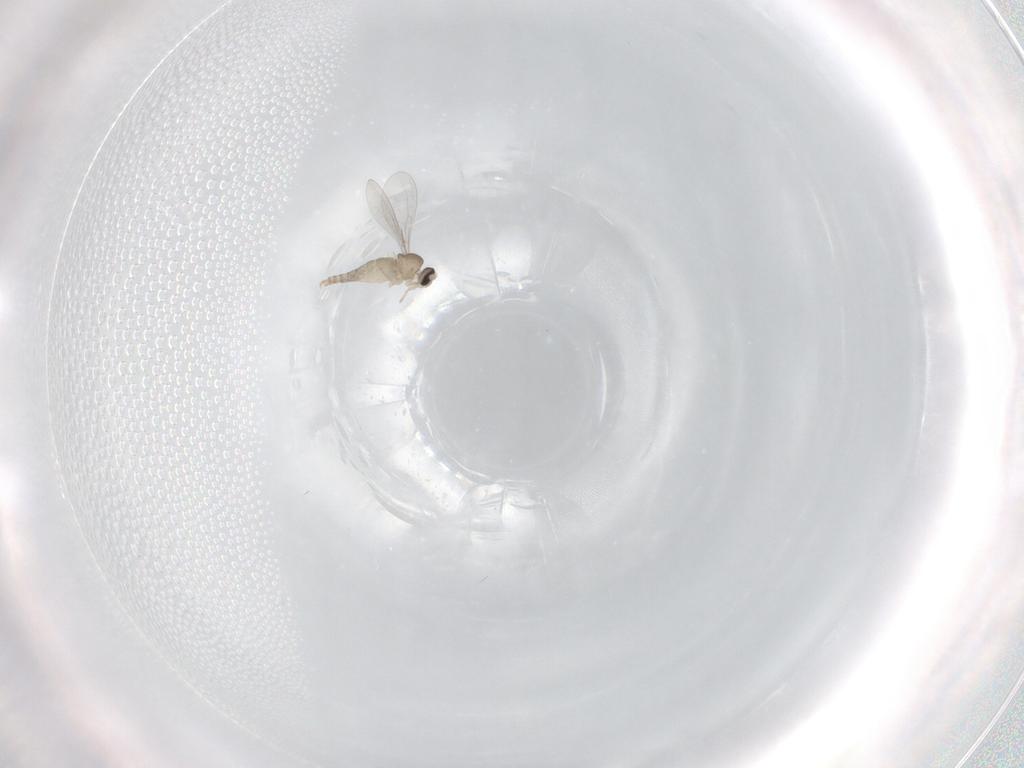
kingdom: Animalia
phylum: Arthropoda
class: Insecta
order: Diptera
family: Cecidomyiidae
